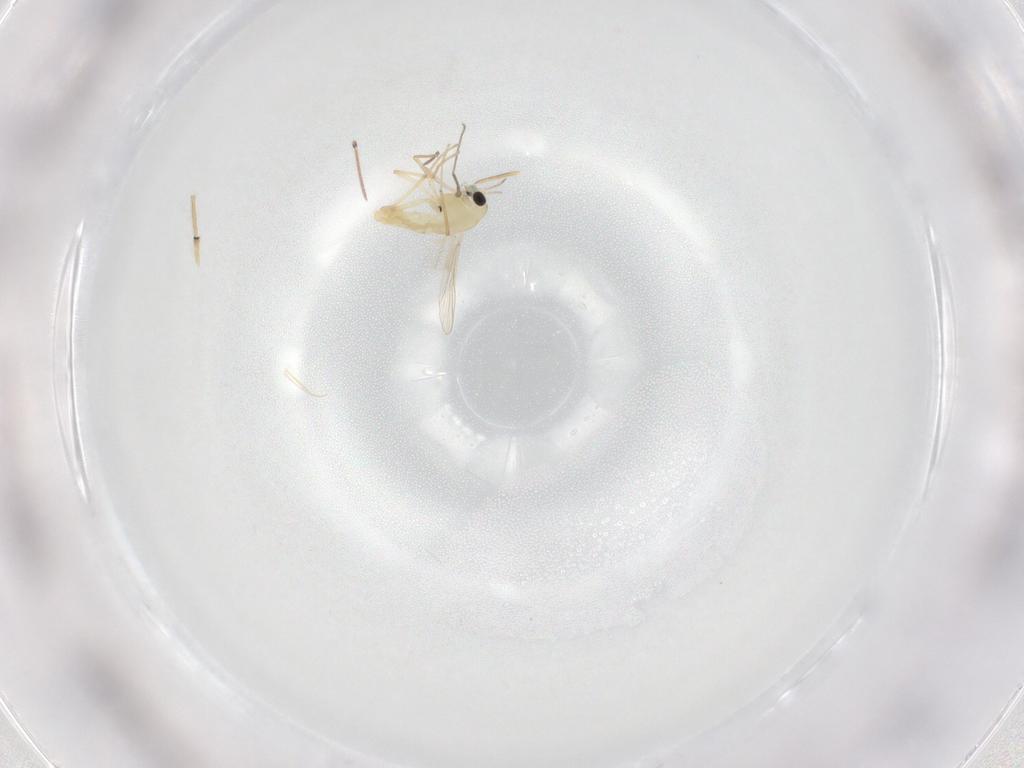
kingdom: Animalia
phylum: Arthropoda
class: Insecta
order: Diptera
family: Chironomidae
